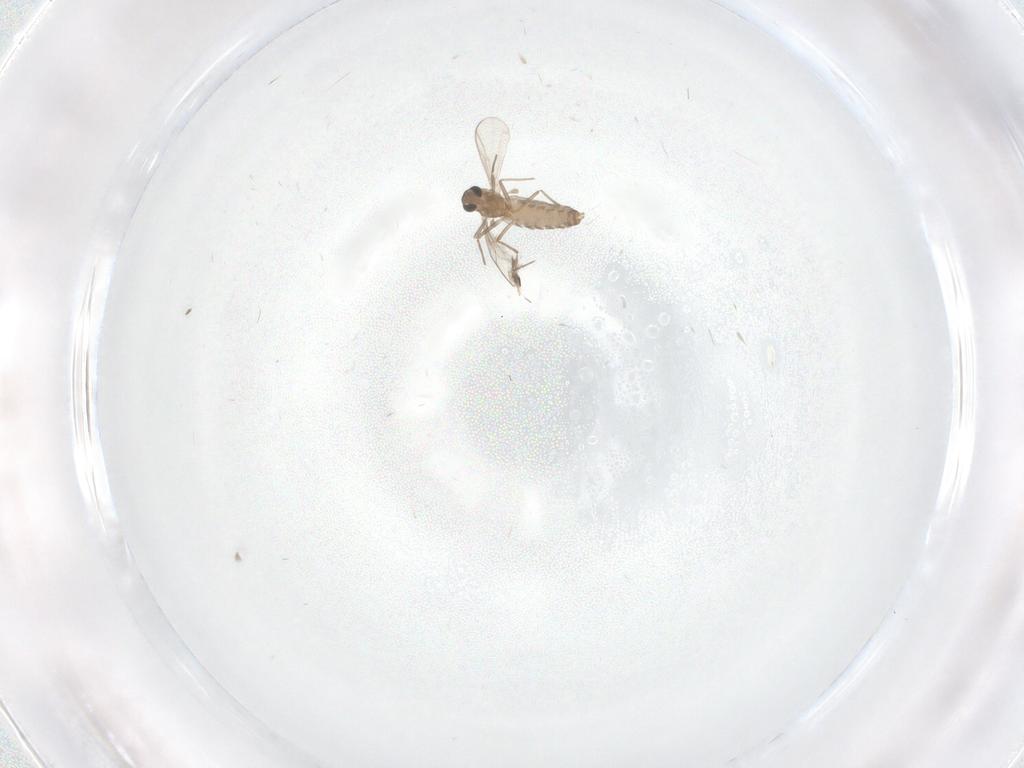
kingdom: Animalia
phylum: Arthropoda
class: Insecta
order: Diptera
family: Chironomidae
